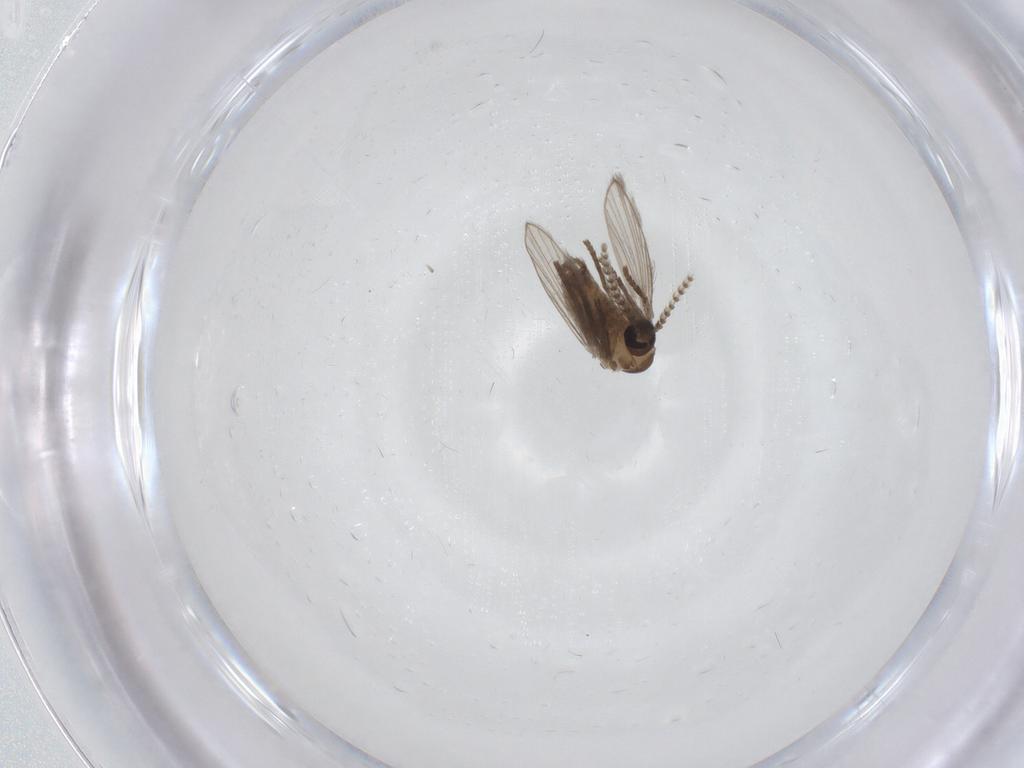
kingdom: Animalia
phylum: Arthropoda
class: Insecta
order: Diptera
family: Psychodidae
